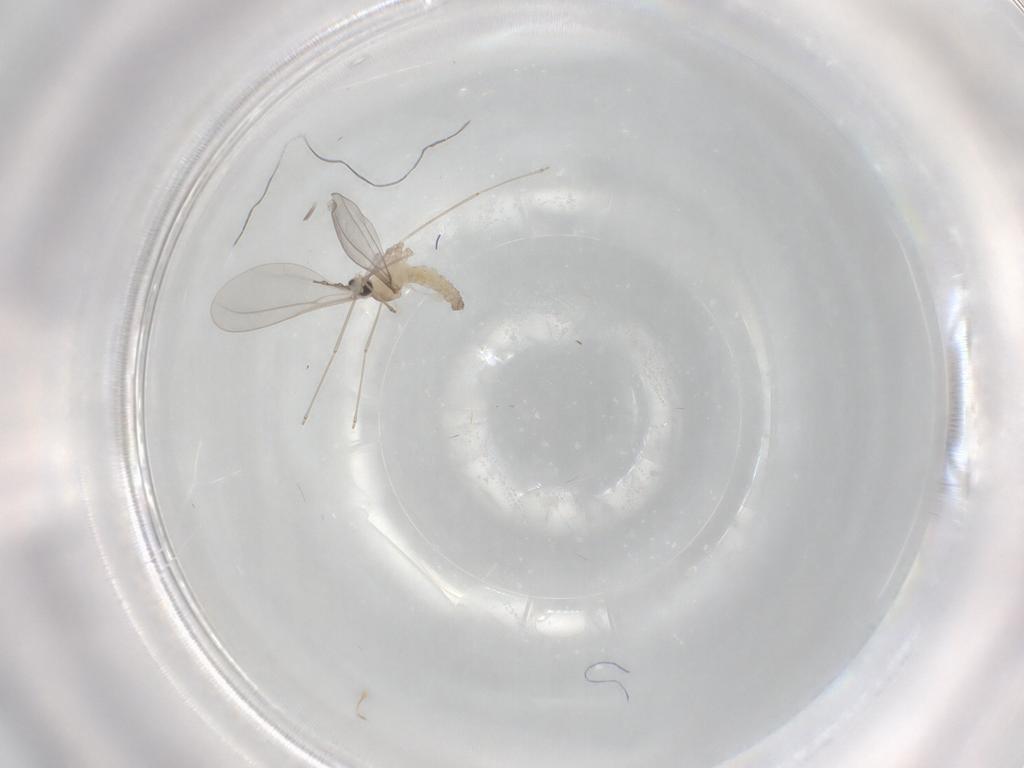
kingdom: Animalia
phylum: Arthropoda
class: Insecta
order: Diptera
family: Cecidomyiidae
